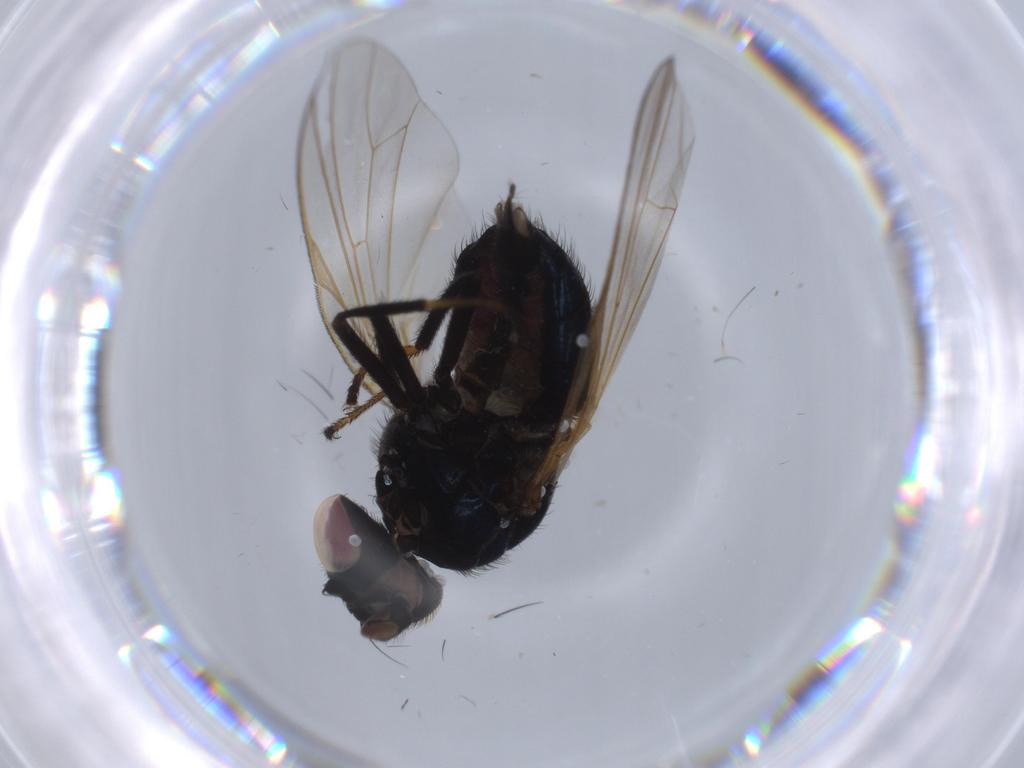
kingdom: Animalia
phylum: Arthropoda
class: Insecta
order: Diptera
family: Lonchaeidae
